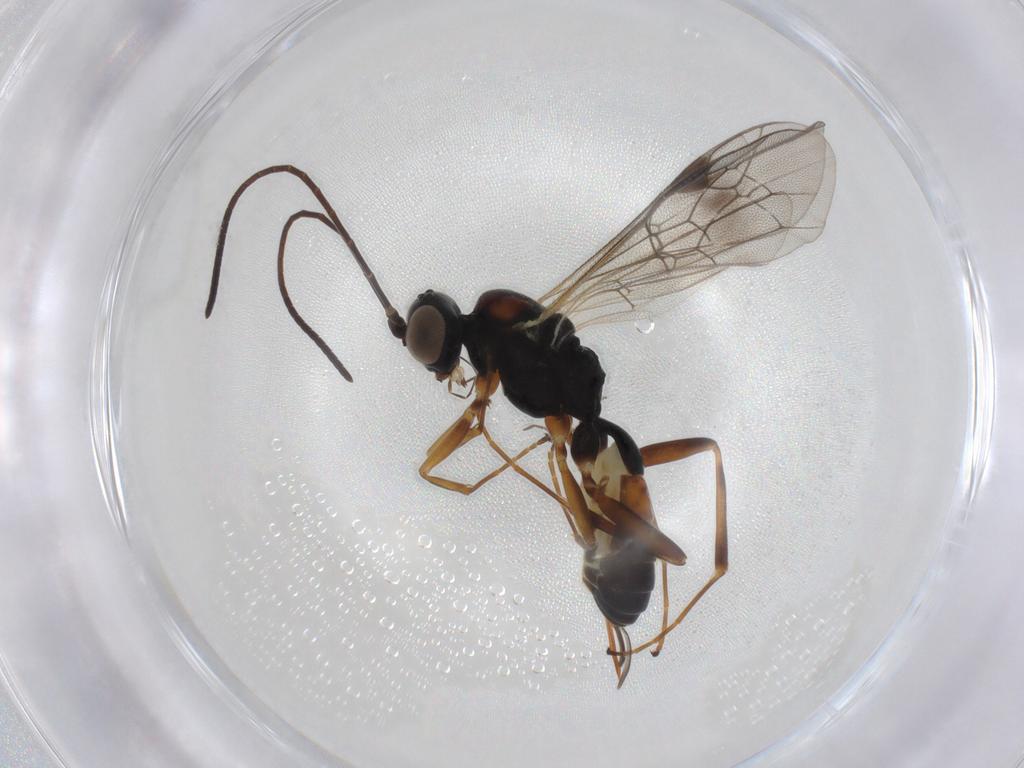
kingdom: Animalia
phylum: Arthropoda
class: Insecta
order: Hymenoptera
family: Ichneumonidae
